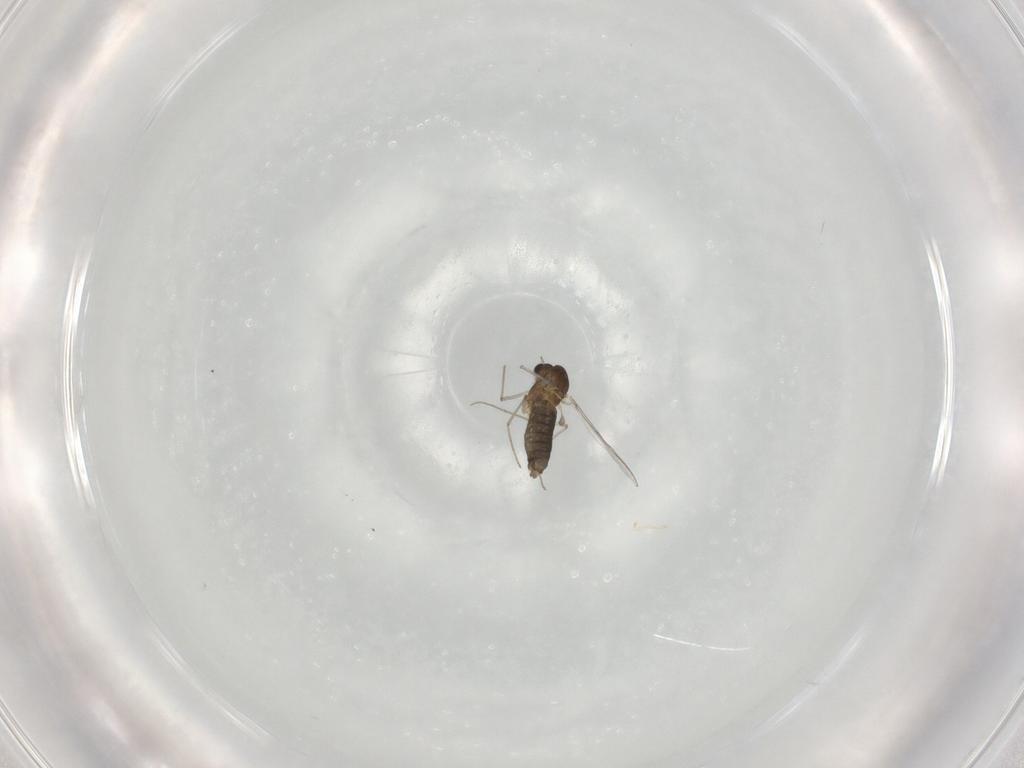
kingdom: Animalia
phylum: Arthropoda
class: Insecta
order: Diptera
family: Chironomidae
